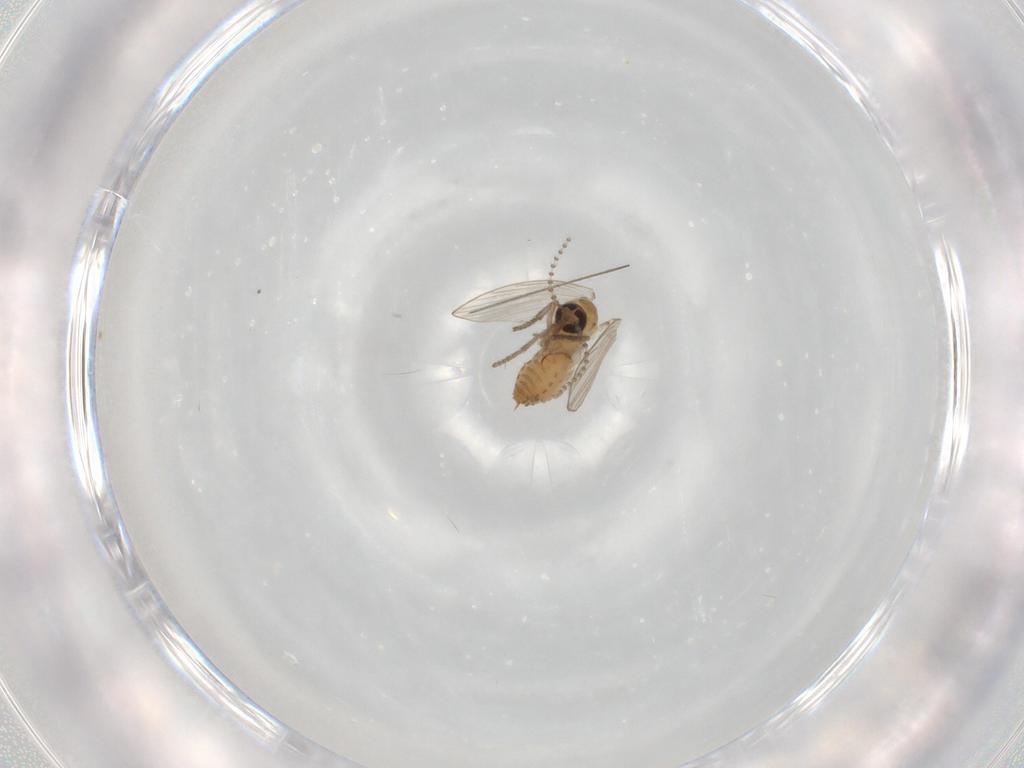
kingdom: Animalia
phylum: Arthropoda
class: Insecta
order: Diptera
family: Psychodidae
